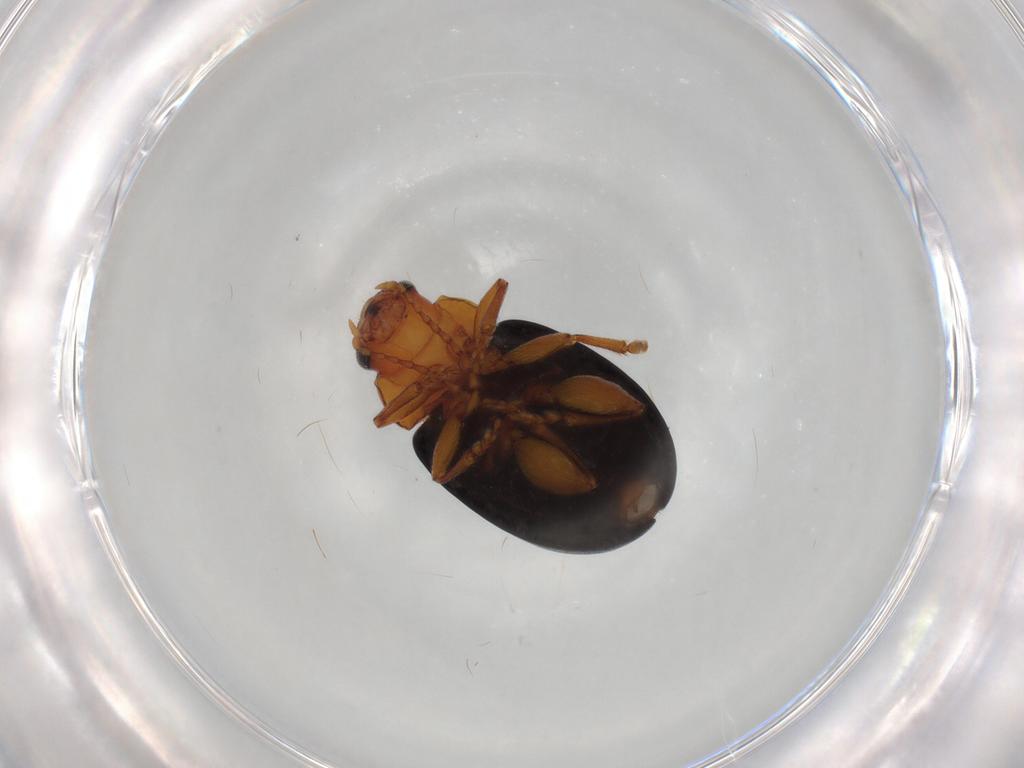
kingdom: Animalia
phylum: Arthropoda
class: Insecta
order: Coleoptera
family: Chrysomelidae
